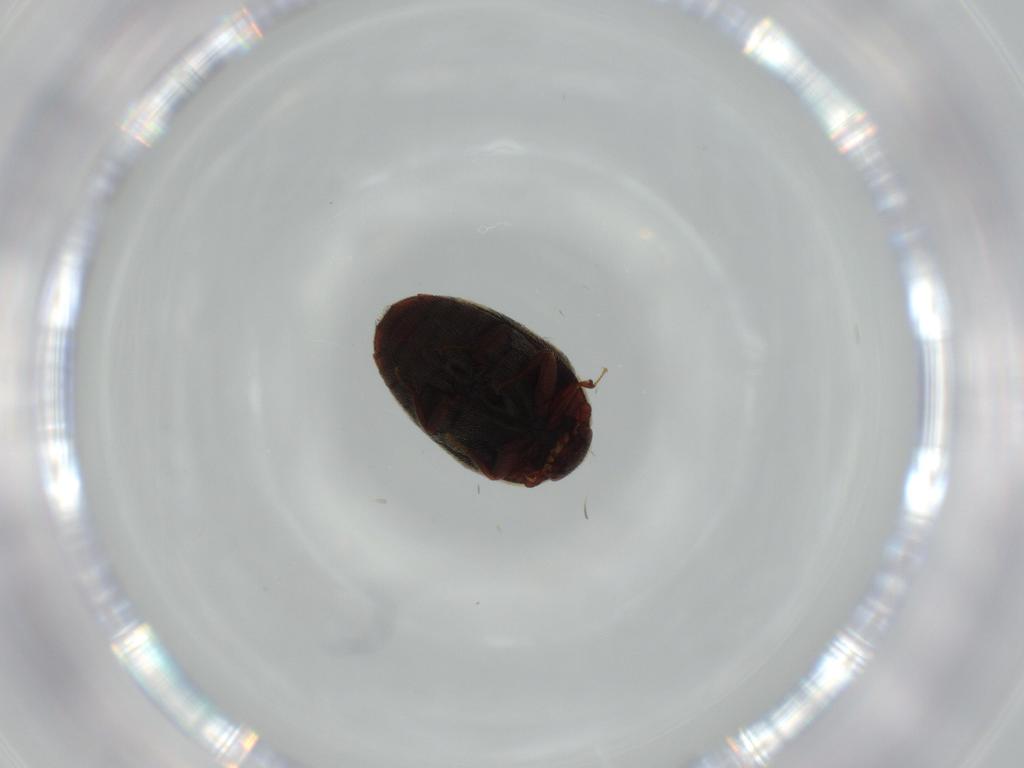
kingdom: Animalia
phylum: Arthropoda
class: Insecta
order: Coleoptera
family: Dermestidae
